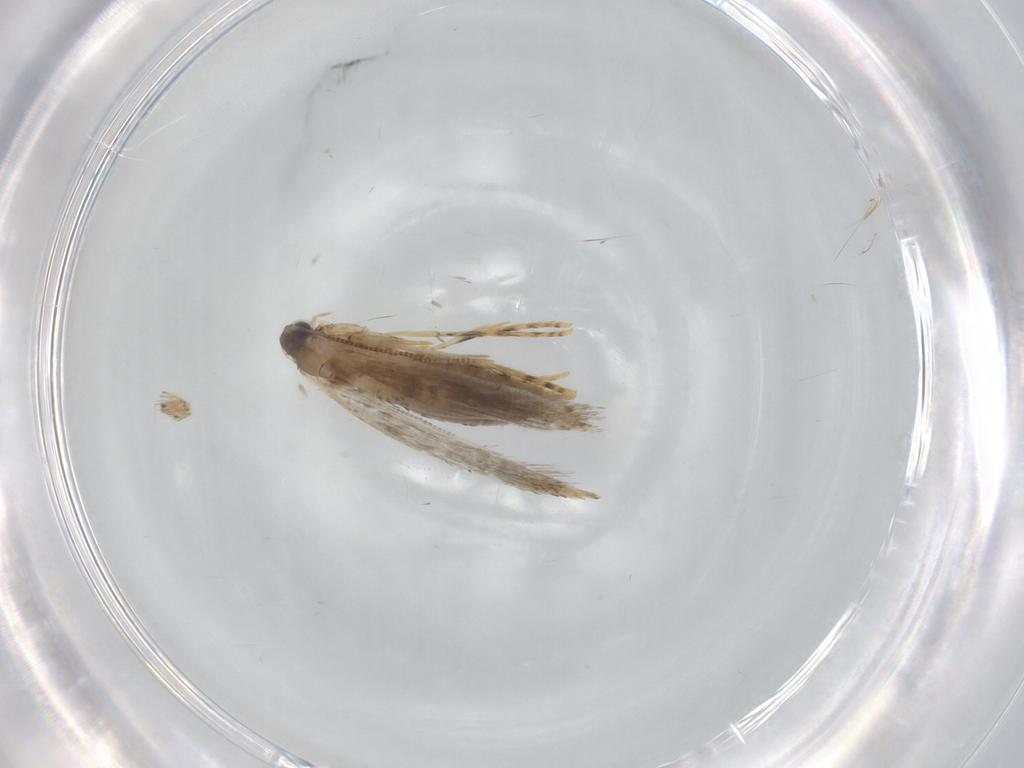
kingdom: Animalia
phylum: Arthropoda
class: Insecta
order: Lepidoptera
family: Tineidae
